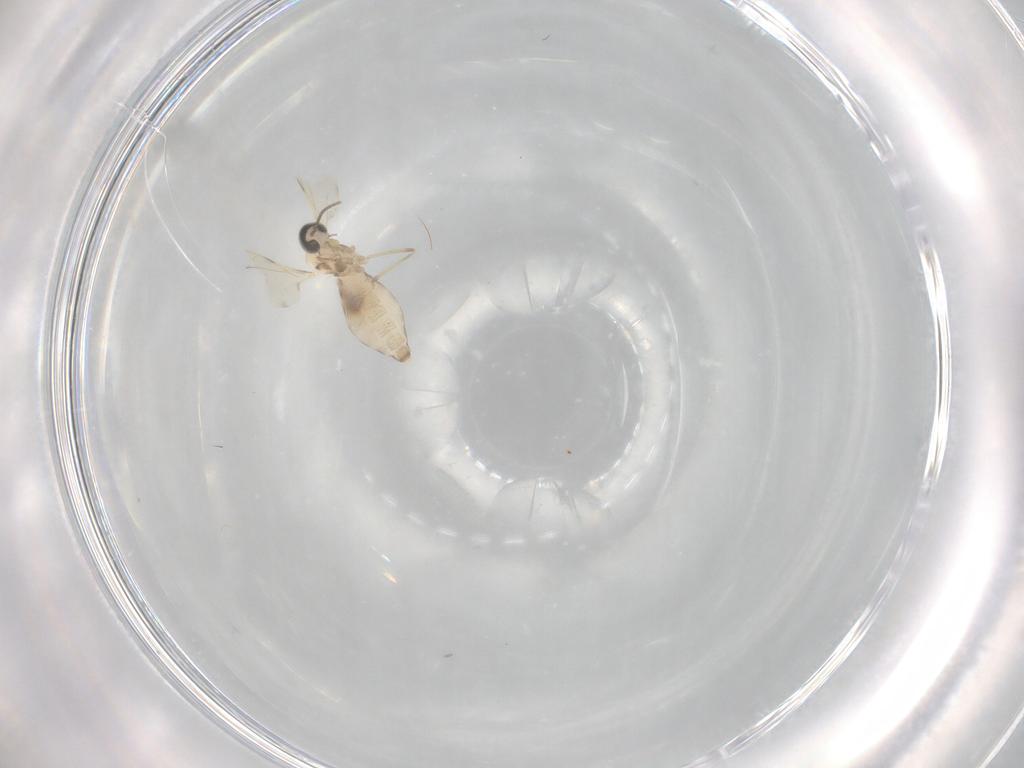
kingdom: Animalia
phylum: Arthropoda
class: Insecta
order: Diptera
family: Cecidomyiidae
